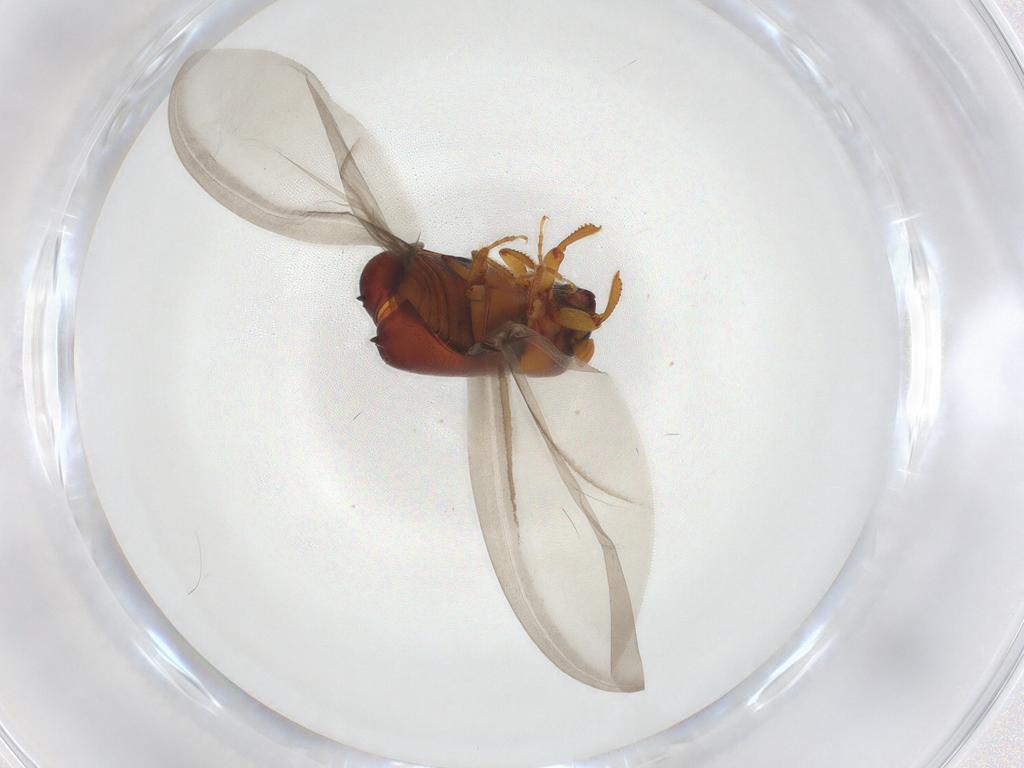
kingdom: Animalia
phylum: Arthropoda
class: Insecta
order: Coleoptera
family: Curculionidae
